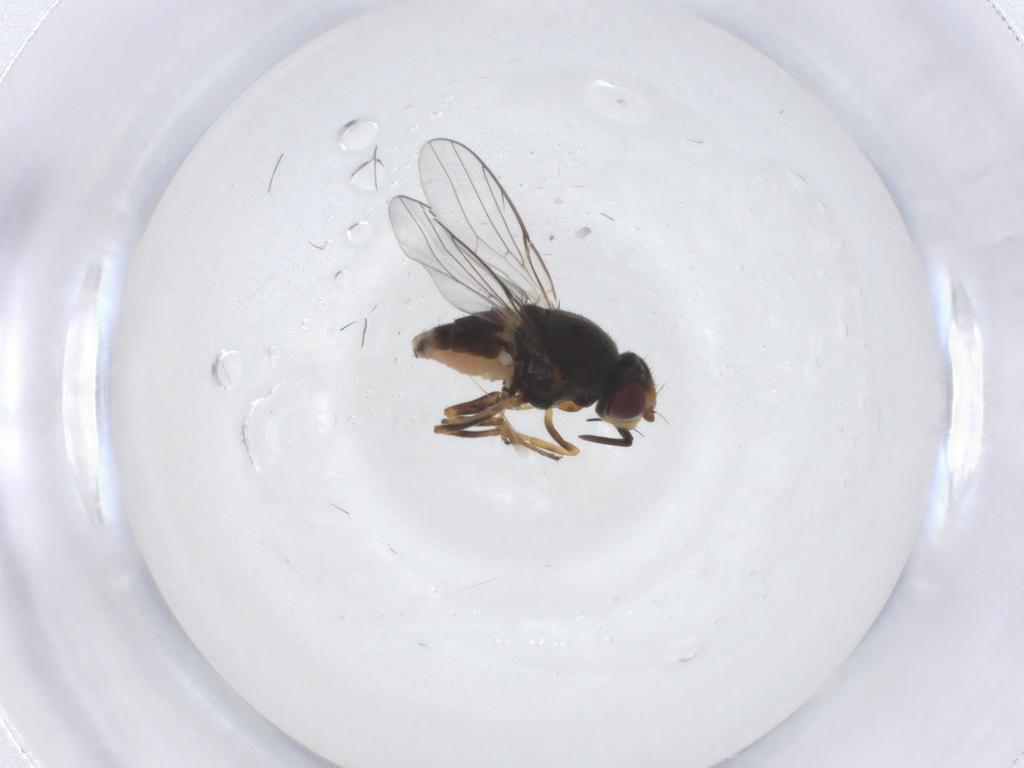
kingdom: Animalia
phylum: Arthropoda
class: Insecta
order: Diptera
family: Chloropidae
